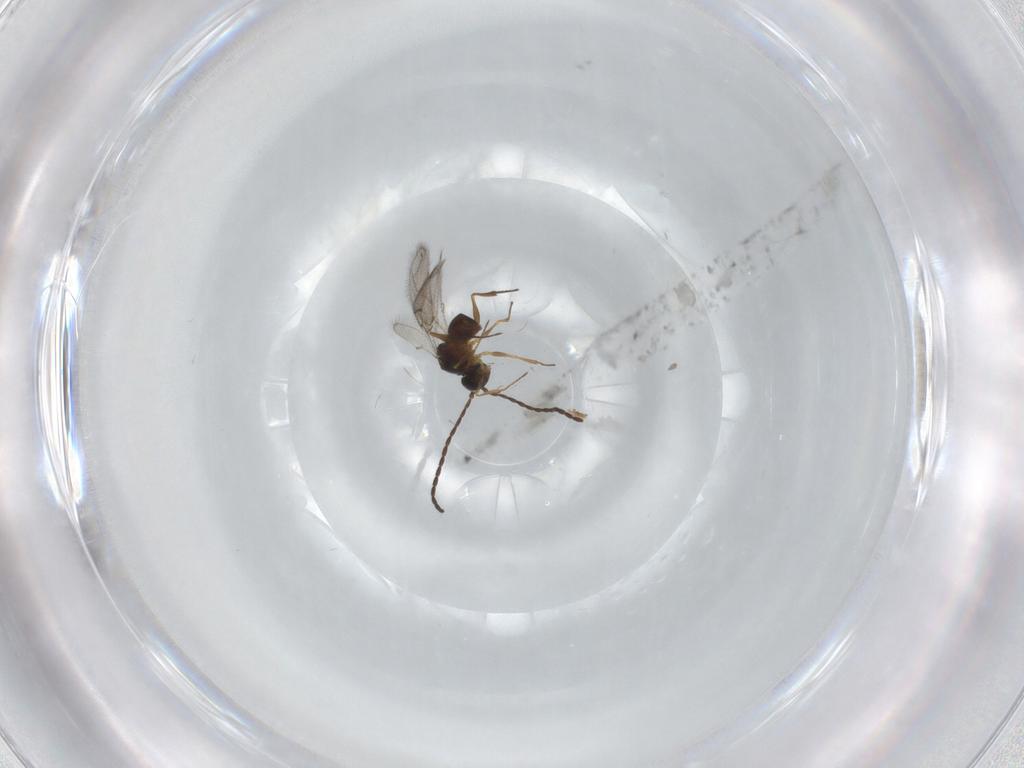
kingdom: Animalia
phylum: Arthropoda
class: Insecta
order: Hymenoptera
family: Figitidae
